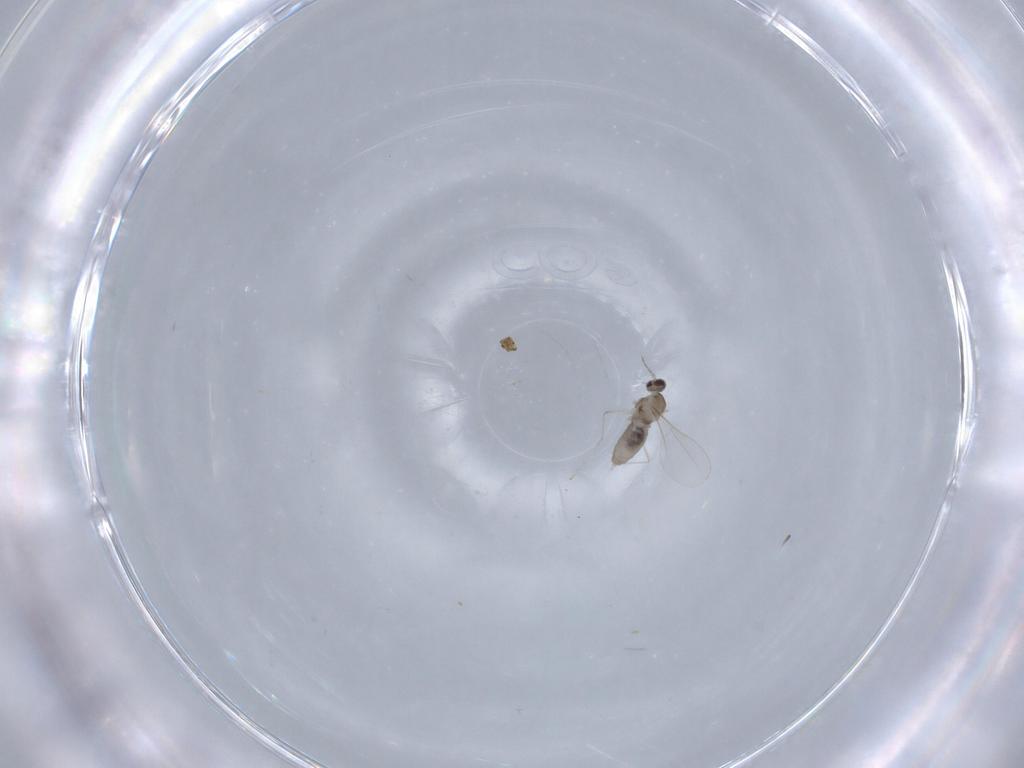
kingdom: Animalia
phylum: Arthropoda
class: Insecta
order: Diptera
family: Cecidomyiidae
